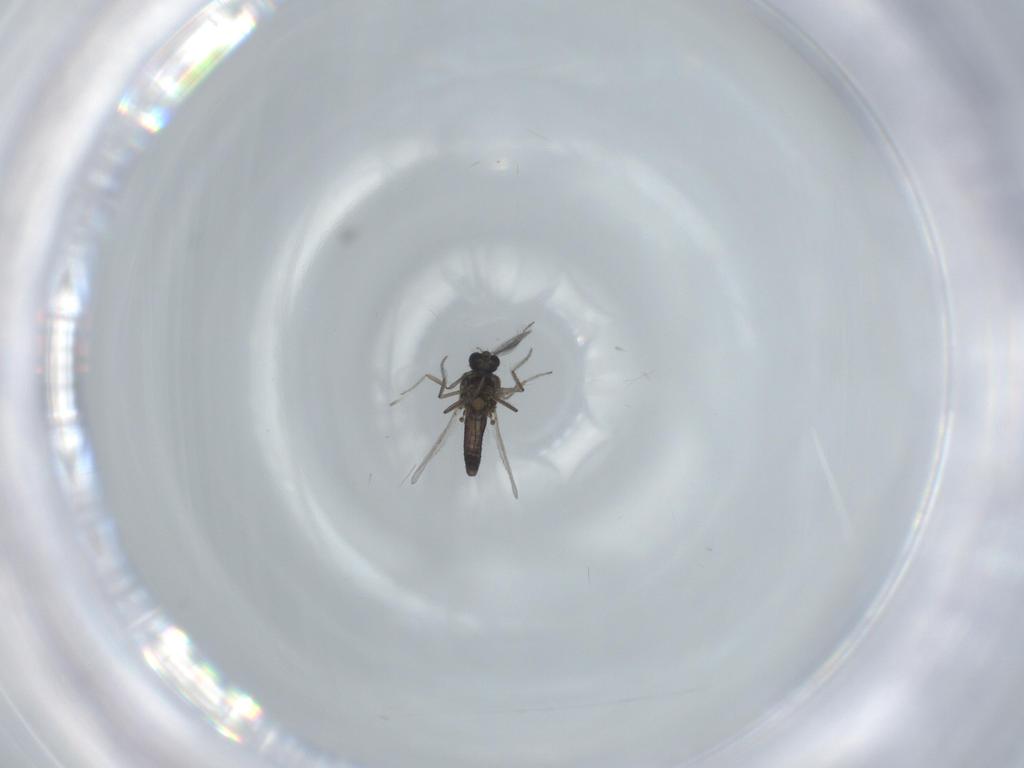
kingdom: Animalia
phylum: Arthropoda
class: Insecta
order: Diptera
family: Ceratopogonidae
